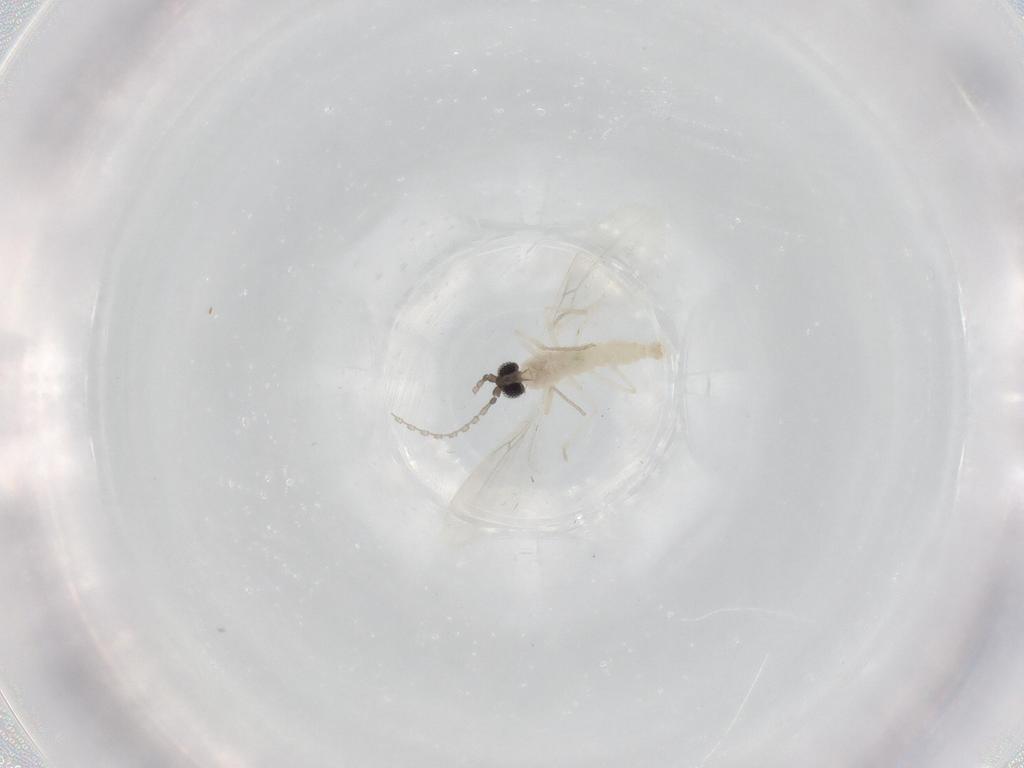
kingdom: Animalia
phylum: Arthropoda
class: Insecta
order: Diptera
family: Cecidomyiidae
